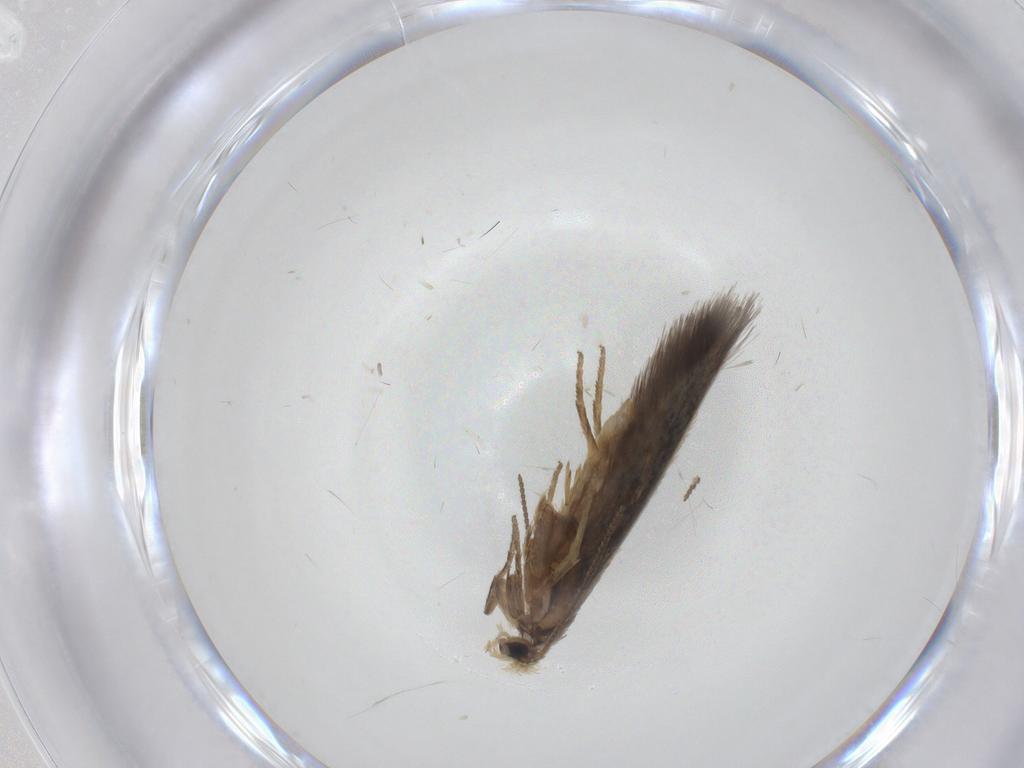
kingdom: Animalia
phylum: Arthropoda
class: Insecta
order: Lepidoptera
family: Nepticulidae
